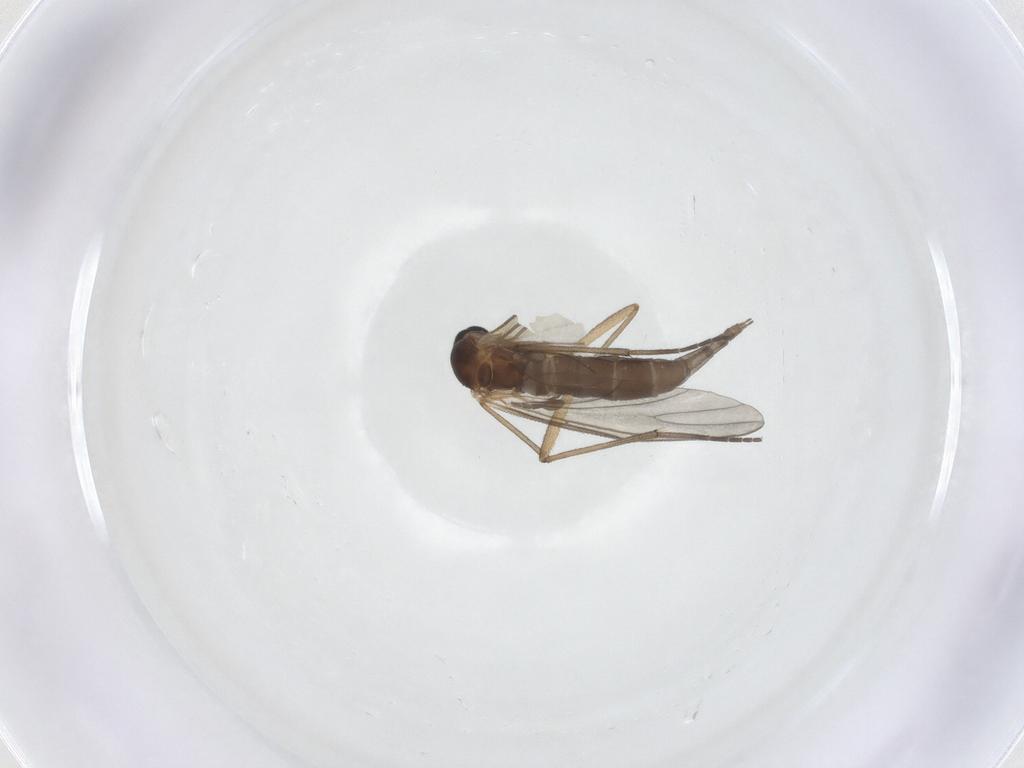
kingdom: Animalia
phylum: Arthropoda
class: Insecta
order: Diptera
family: Sciaridae
